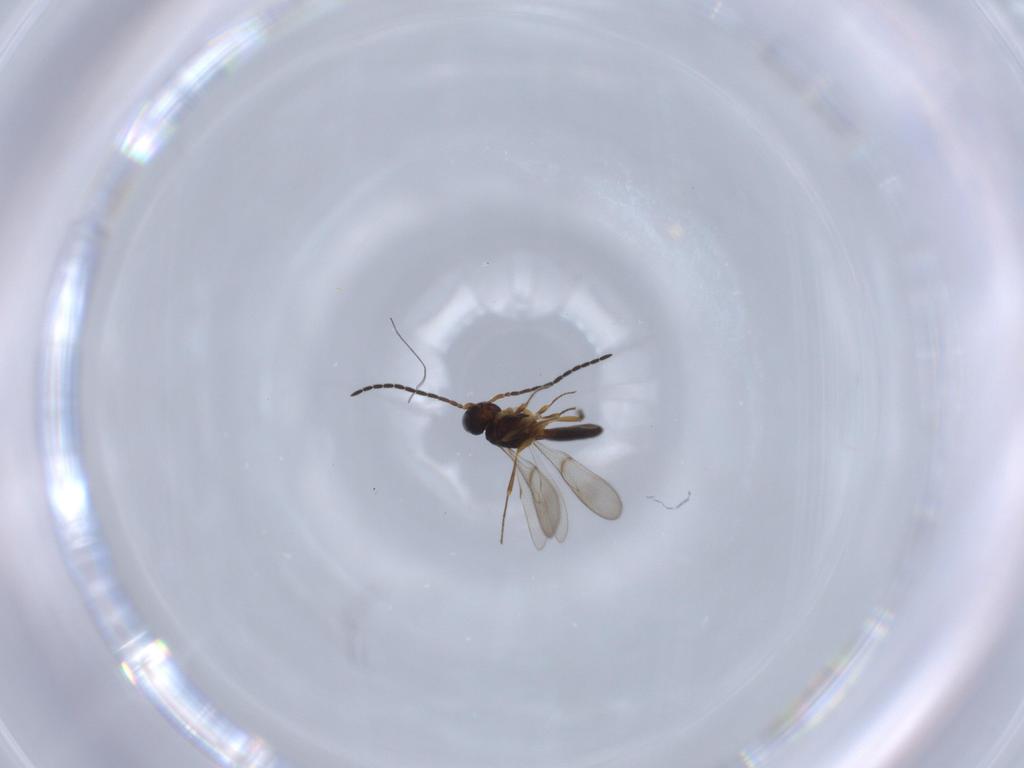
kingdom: Animalia
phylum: Arthropoda
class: Insecta
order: Hymenoptera
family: Scelionidae
